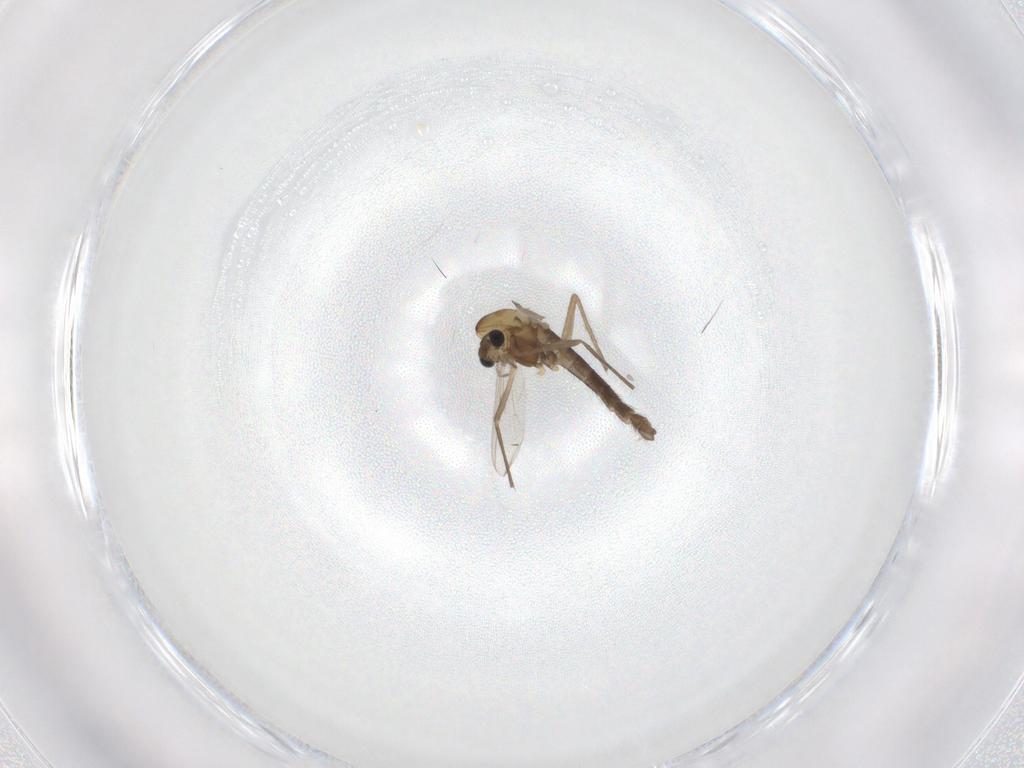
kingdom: Animalia
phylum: Arthropoda
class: Insecta
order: Diptera
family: Chironomidae
